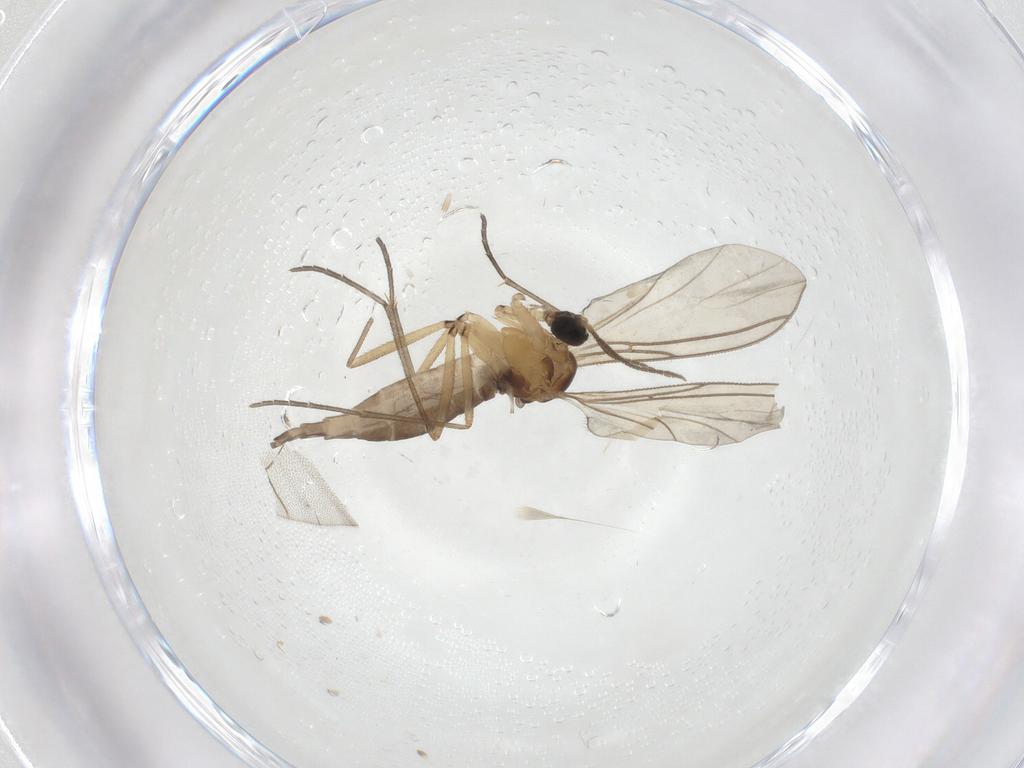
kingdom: Animalia
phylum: Arthropoda
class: Insecta
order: Diptera
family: Sciaridae
